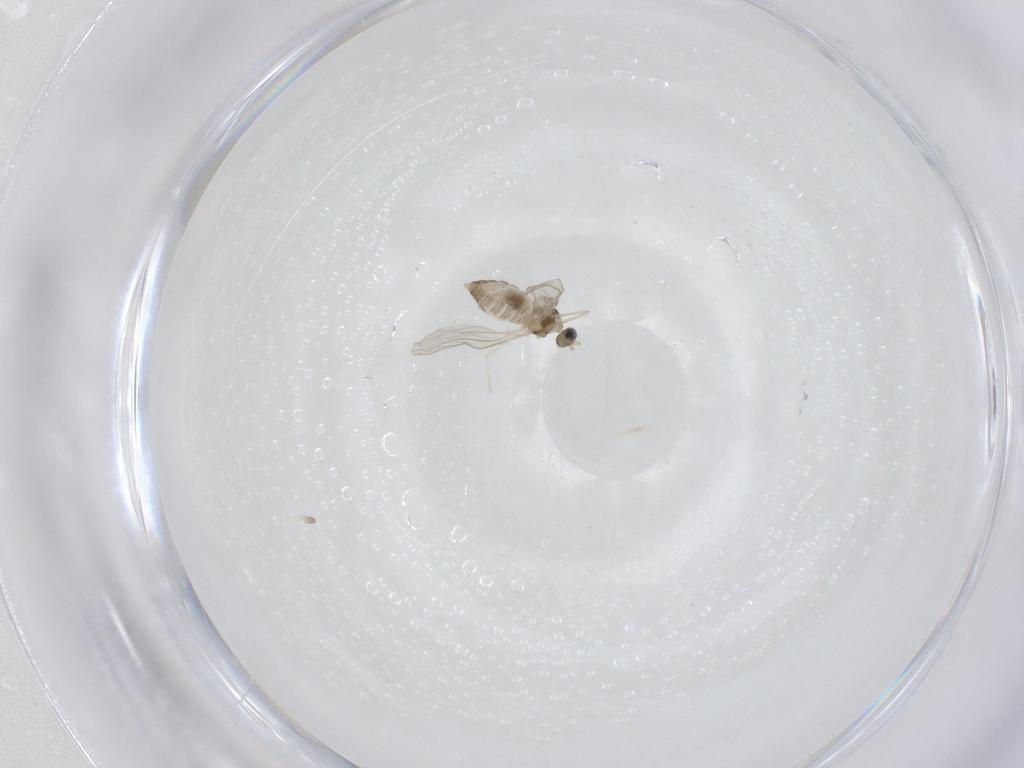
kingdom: Animalia
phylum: Arthropoda
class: Insecta
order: Diptera
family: Cecidomyiidae
